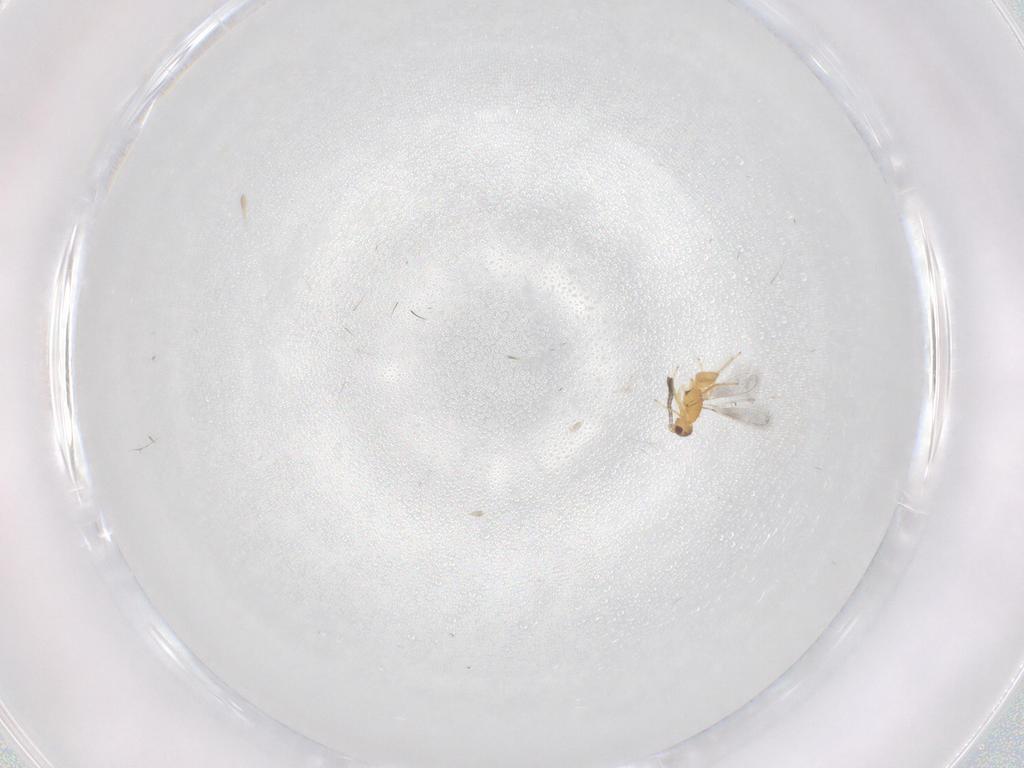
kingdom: Animalia
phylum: Arthropoda
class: Insecta
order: Hymenoptera
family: Mymaridae
